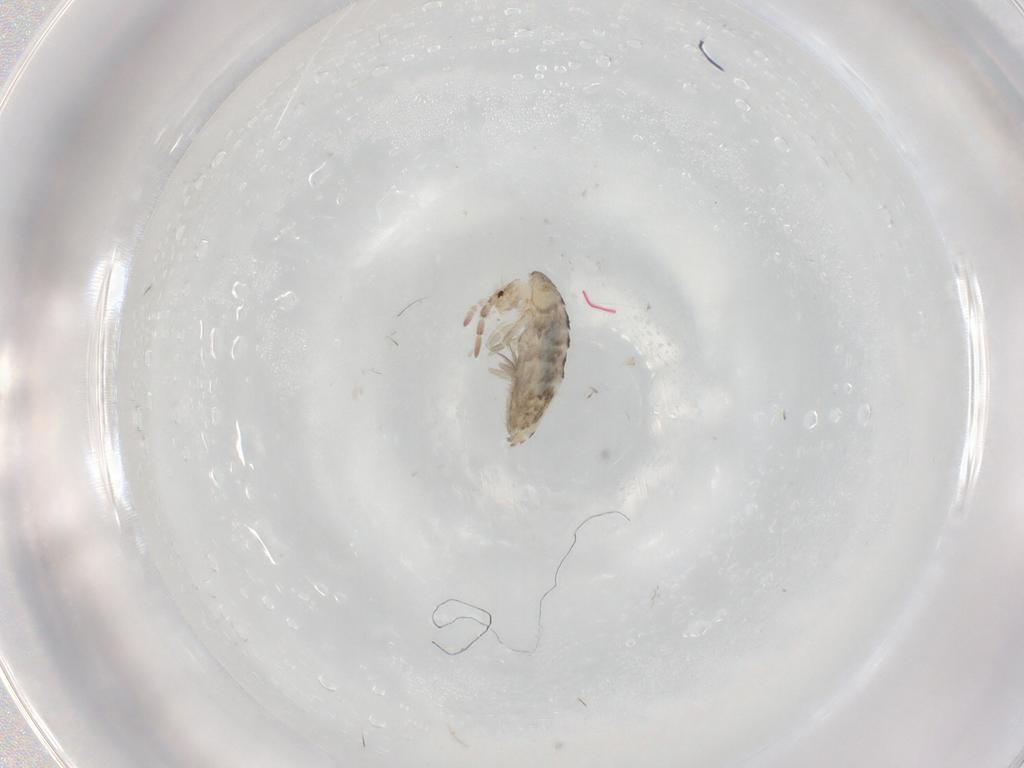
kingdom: Animalia
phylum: Arthropoda
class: Collembola
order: Entomobryomorpha
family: Entomobryidae
